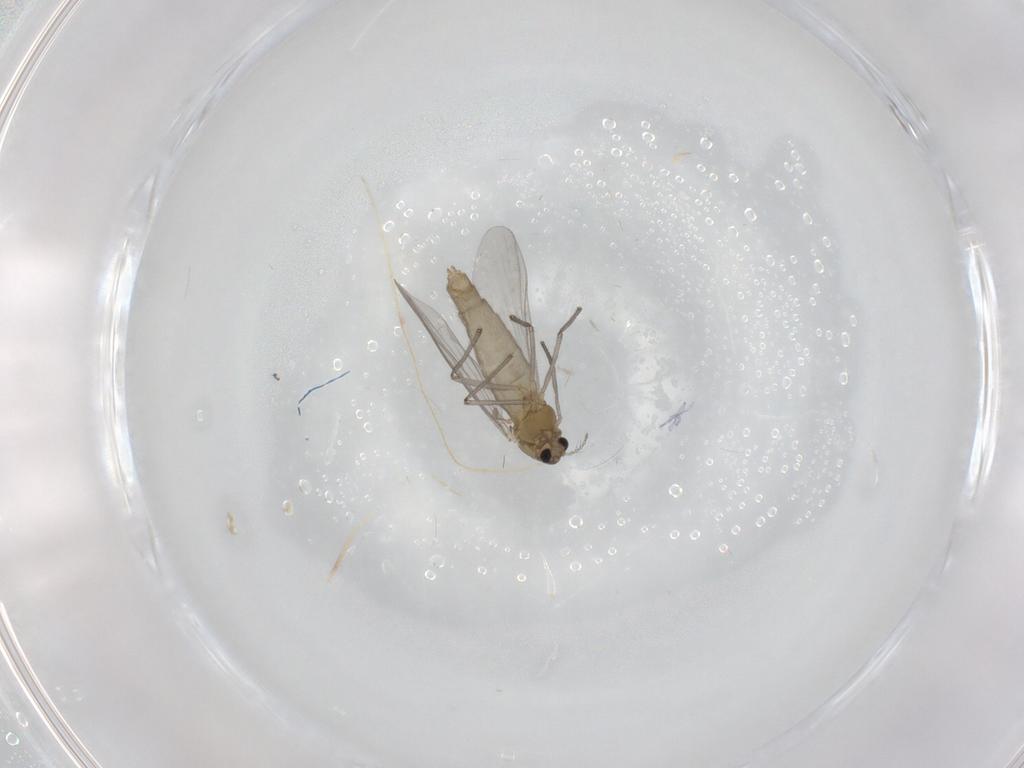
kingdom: Animalia
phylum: Arthropoda
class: Insecta
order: Diptera
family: Chironomidae
